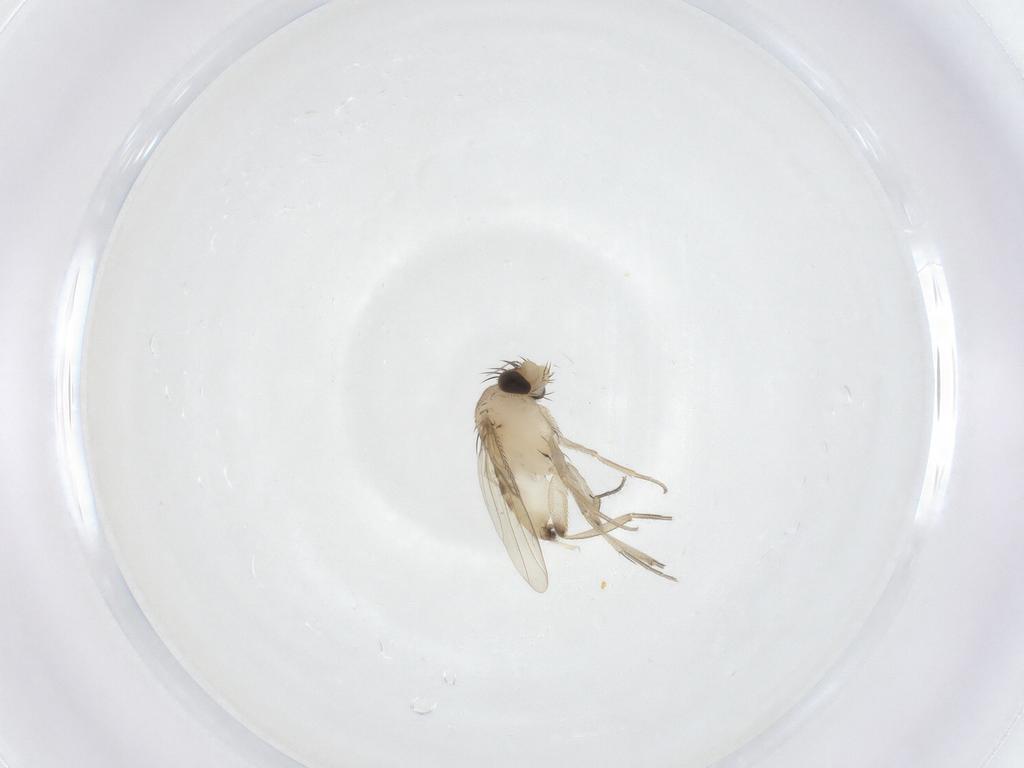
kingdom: Animalia
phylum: Arthropoda
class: Insecta
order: Diptera
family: Phoridae
